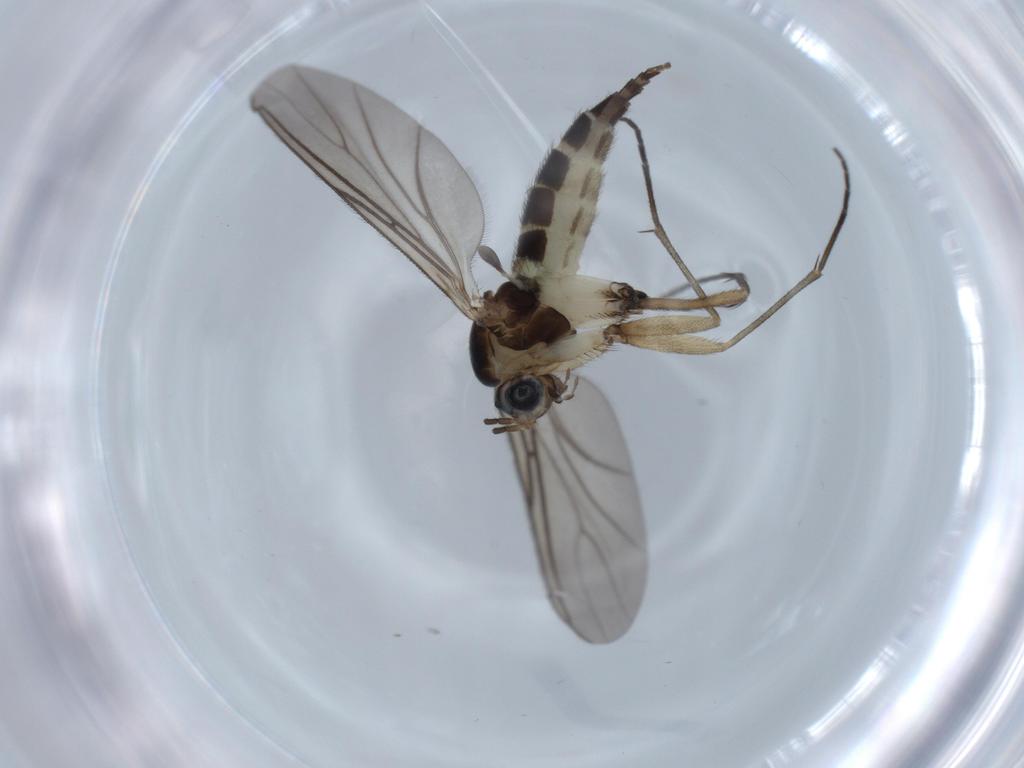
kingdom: Animalia
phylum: Arthropoda
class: Insecta
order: Diptera
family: Sciaridae
